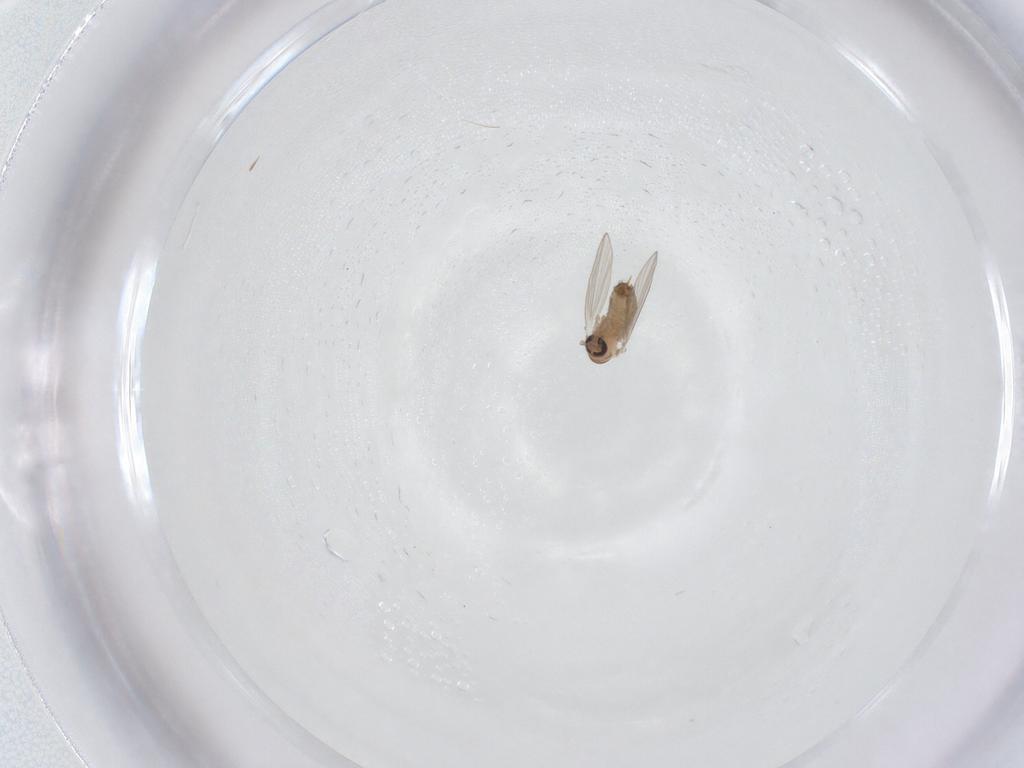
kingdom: Animalia
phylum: Arthropoda
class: Insecta
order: Diptera
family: Psychodidae
